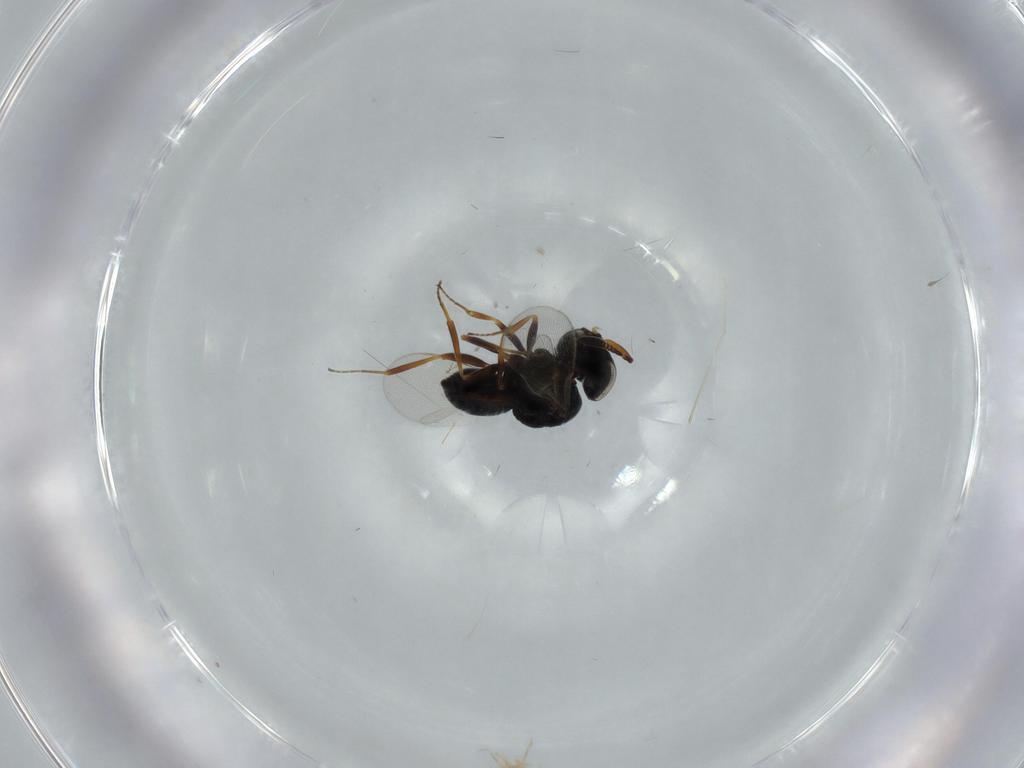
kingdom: Animalia
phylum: Arthropoda
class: Insecta
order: Hymenoptera
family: Scelionidae
